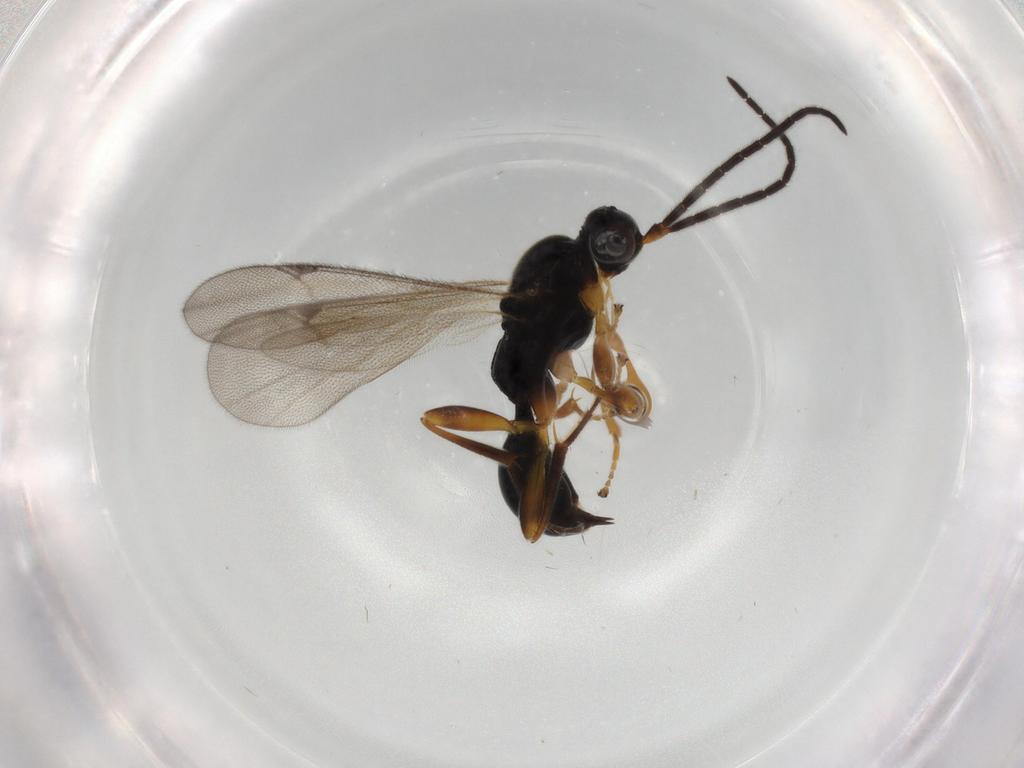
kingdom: Animalia
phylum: Arthropoda
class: Insecta
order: Hymenoptera
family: Proctotrupidae
